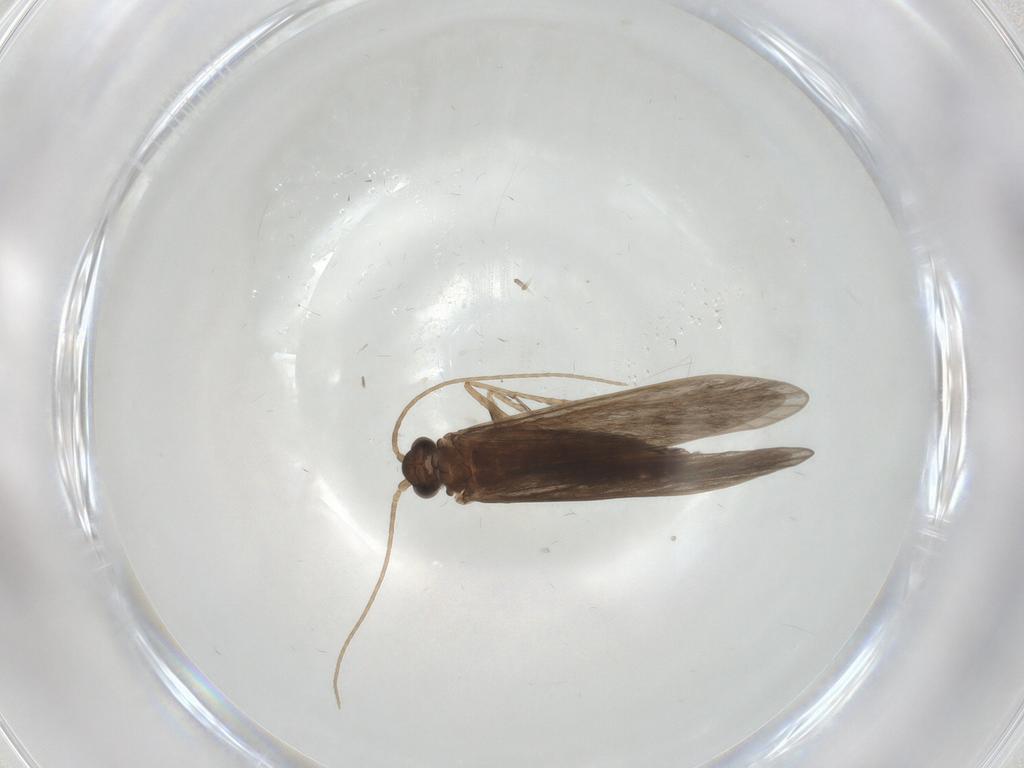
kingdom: Animalia
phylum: Arthropoda
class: Insecta
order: Trichoptera
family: Xiphocentronidae
